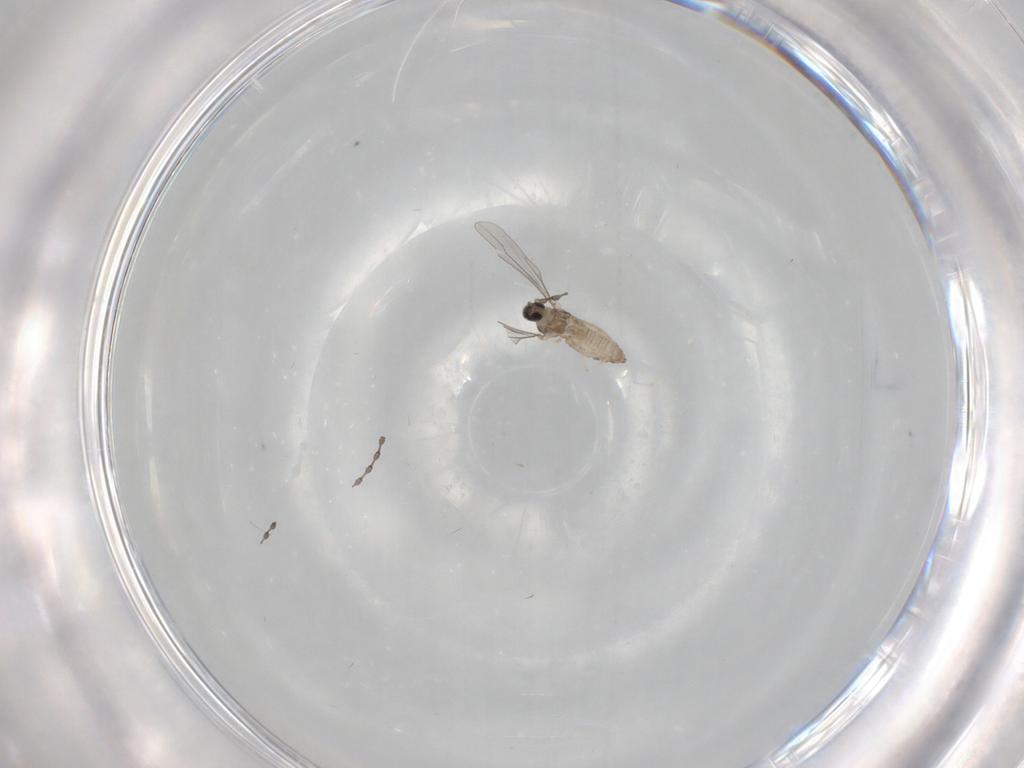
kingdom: Animalia
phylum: Arthropoda
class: Insecta
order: Diptera
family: Cecidomyiidae
